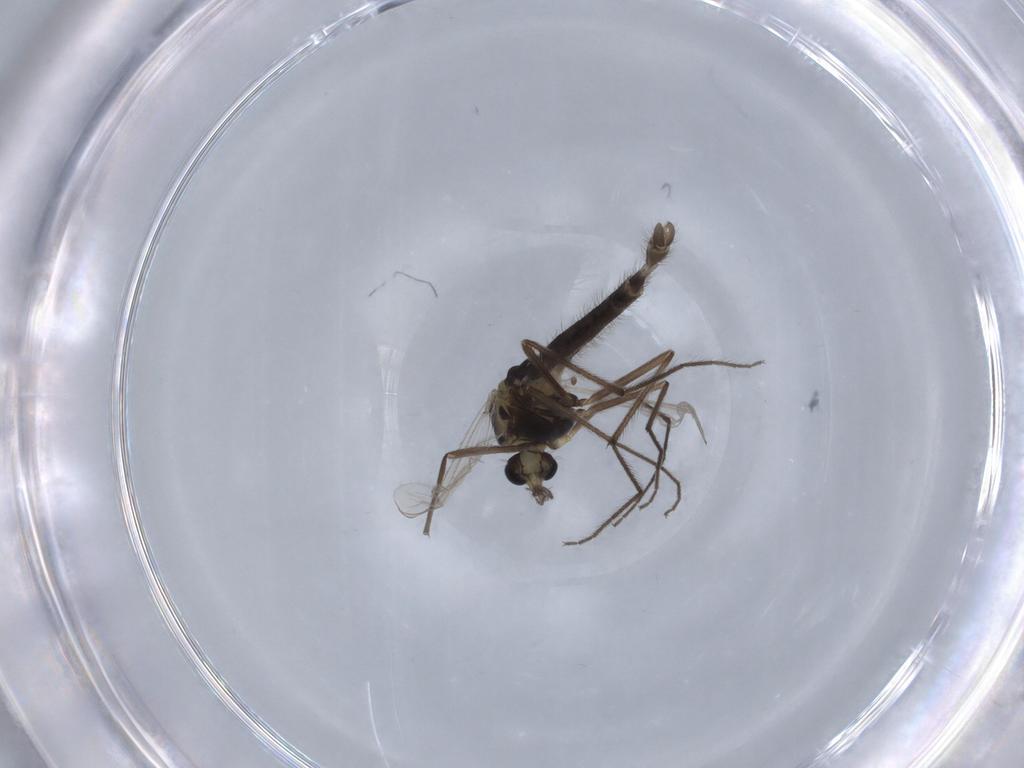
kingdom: Animalia
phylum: Arthropoda
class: Insecta
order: Diptera
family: Chironomidae
